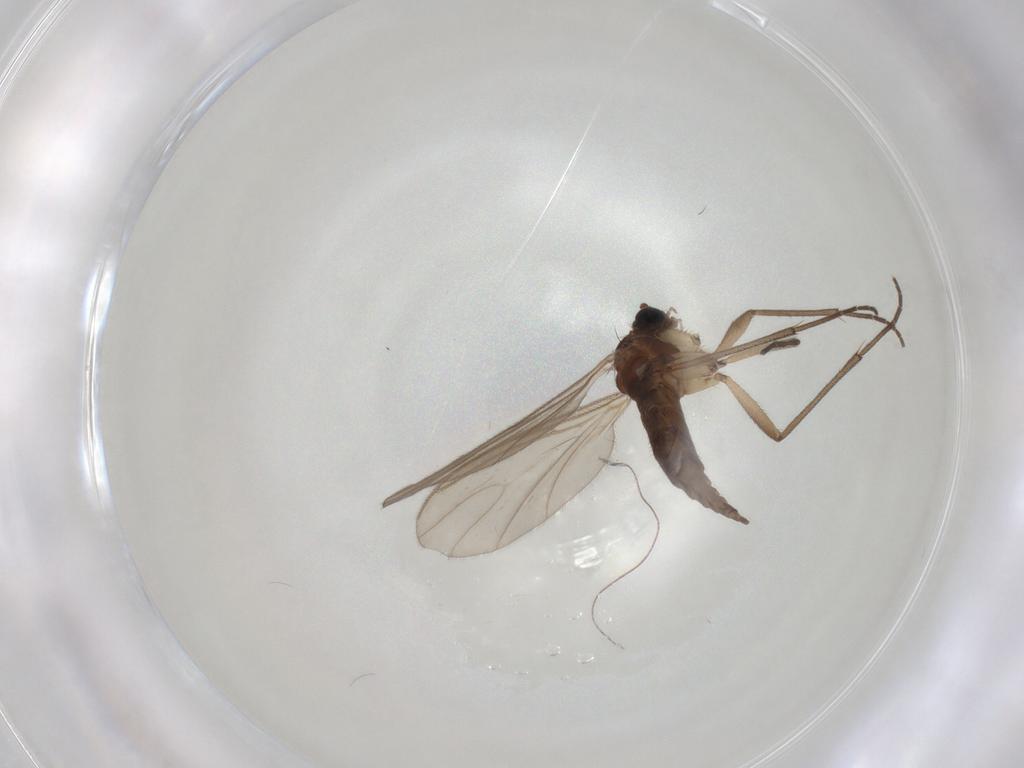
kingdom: Animalia
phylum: Arthropoda
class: Insecta
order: Diptera
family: Sciaridae
